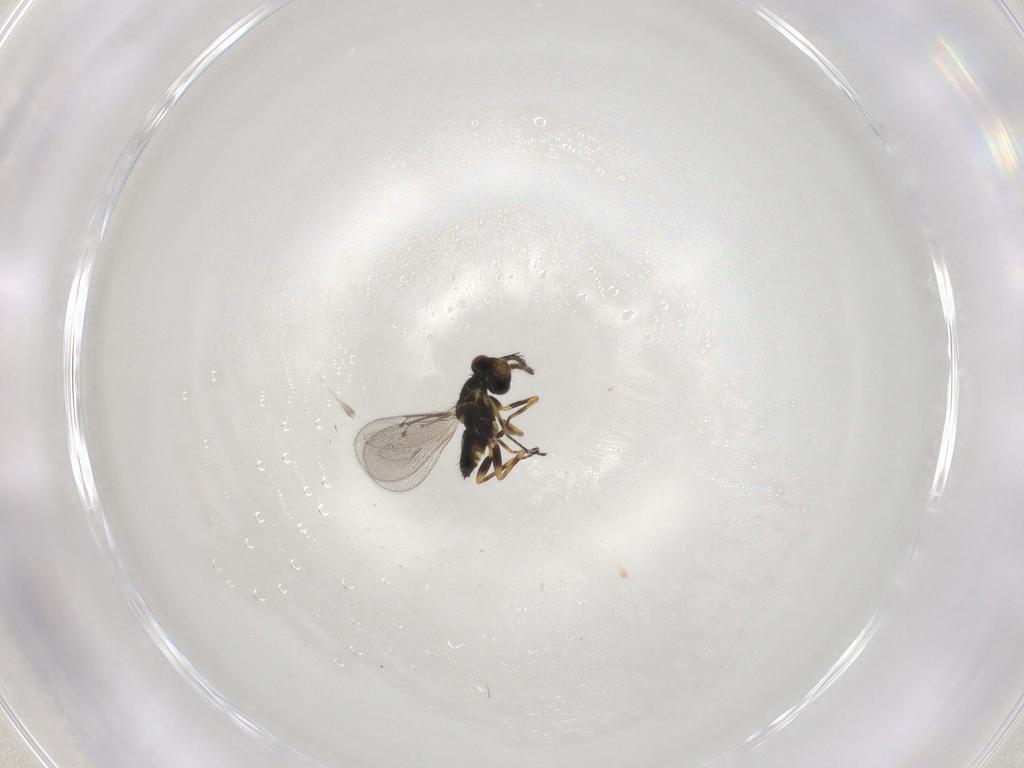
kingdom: Animalia
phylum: Arthropoda
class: Insecta
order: Hymenoptera
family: Eulophidae
